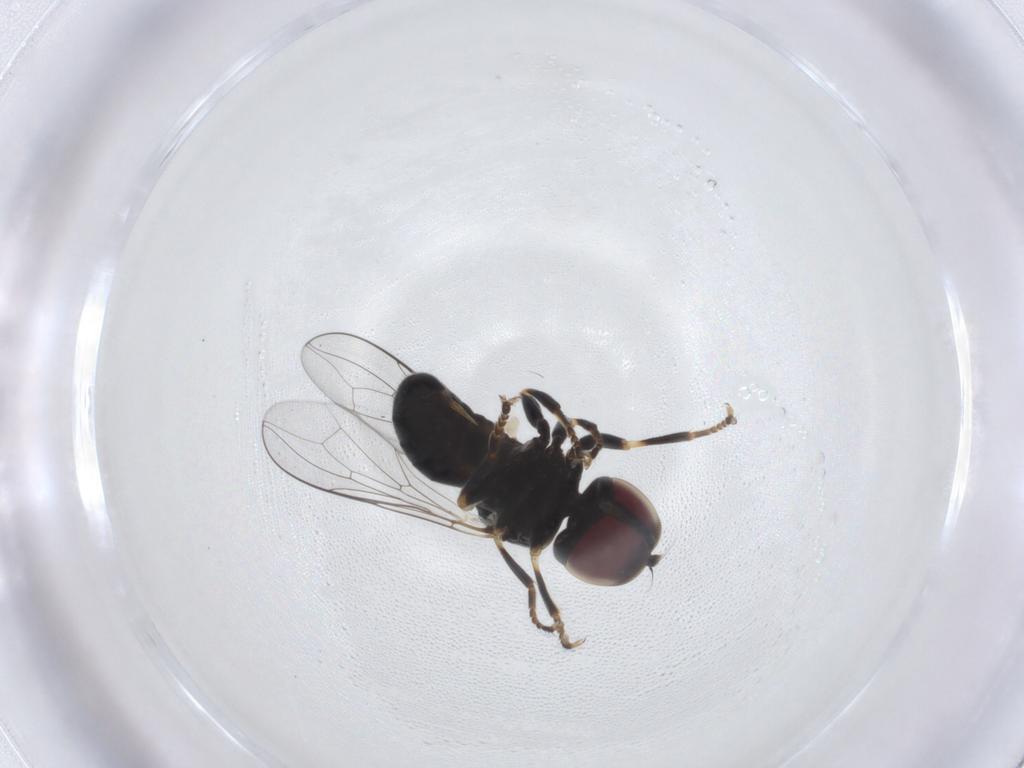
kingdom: Animalia
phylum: Arthropoda
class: Insecta
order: Diptera
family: Pipunculidae
